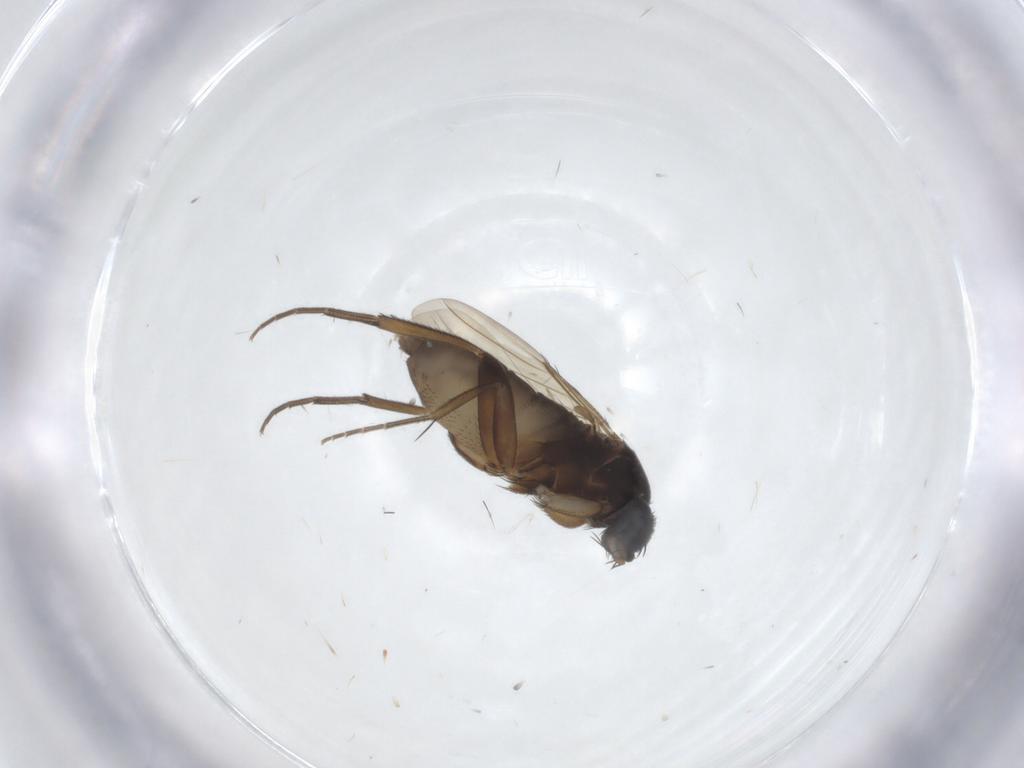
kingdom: Animalia
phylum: Arthropoda
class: Insecta
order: Diptera
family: Phoridae
